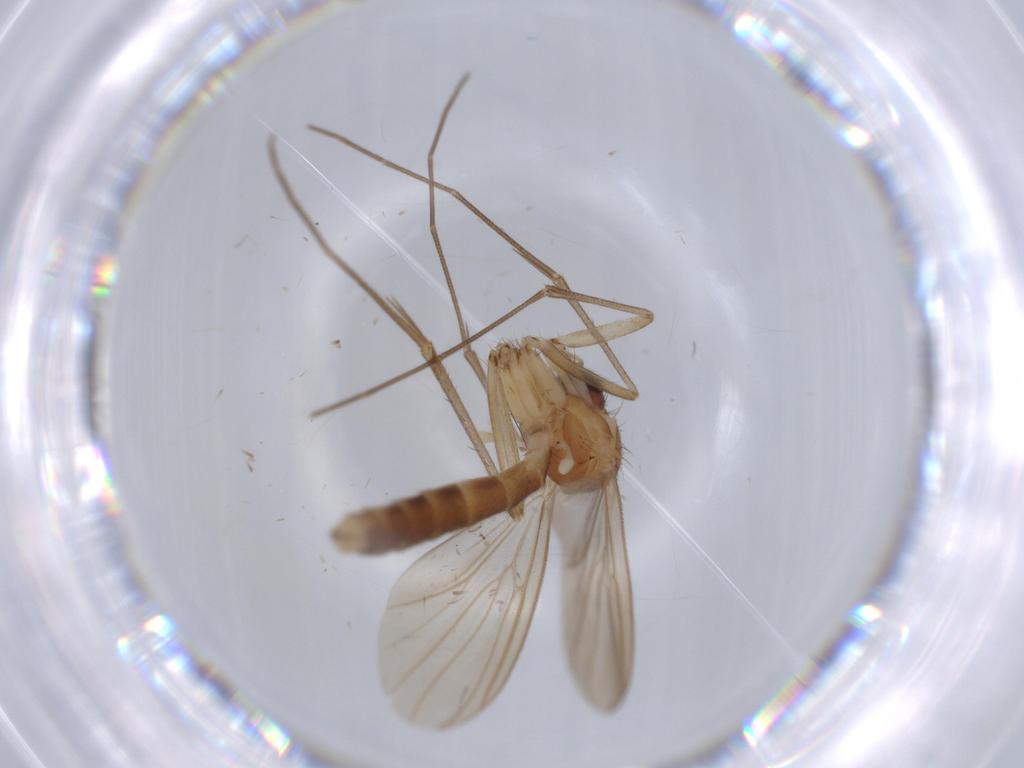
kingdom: Animalia
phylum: Arthropoda
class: Insecta
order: Diptera
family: Mycetophilidae
